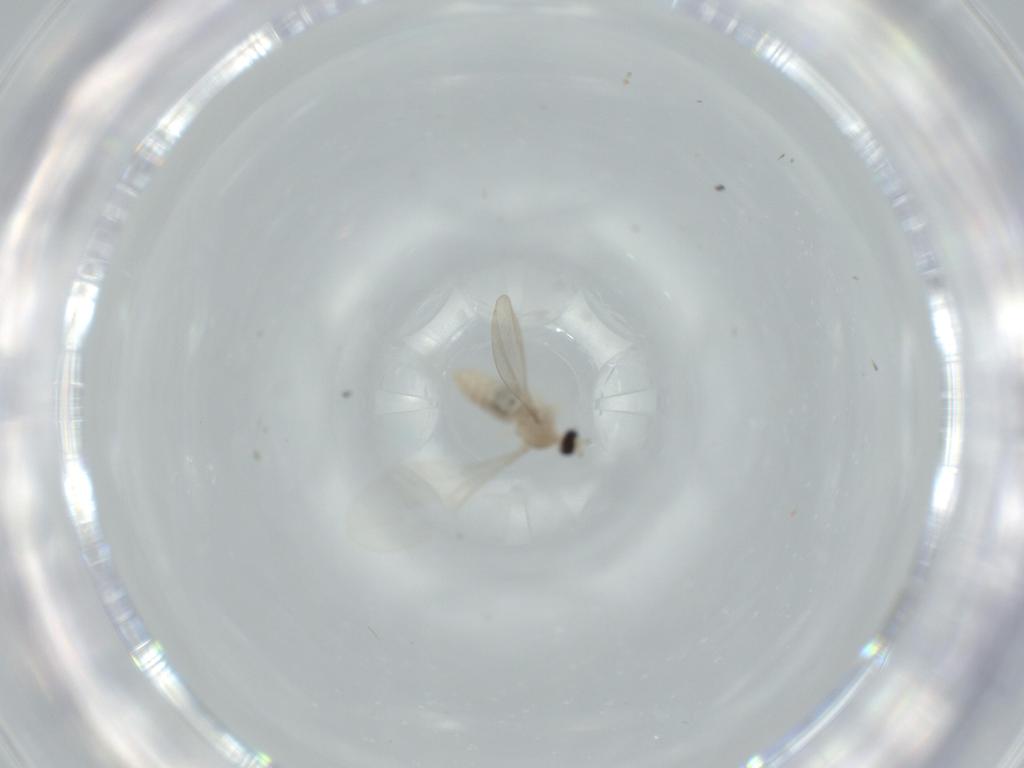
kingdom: Animalia
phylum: Arthropoda
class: Insecta
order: Diptera
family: Cecidomyiidae
